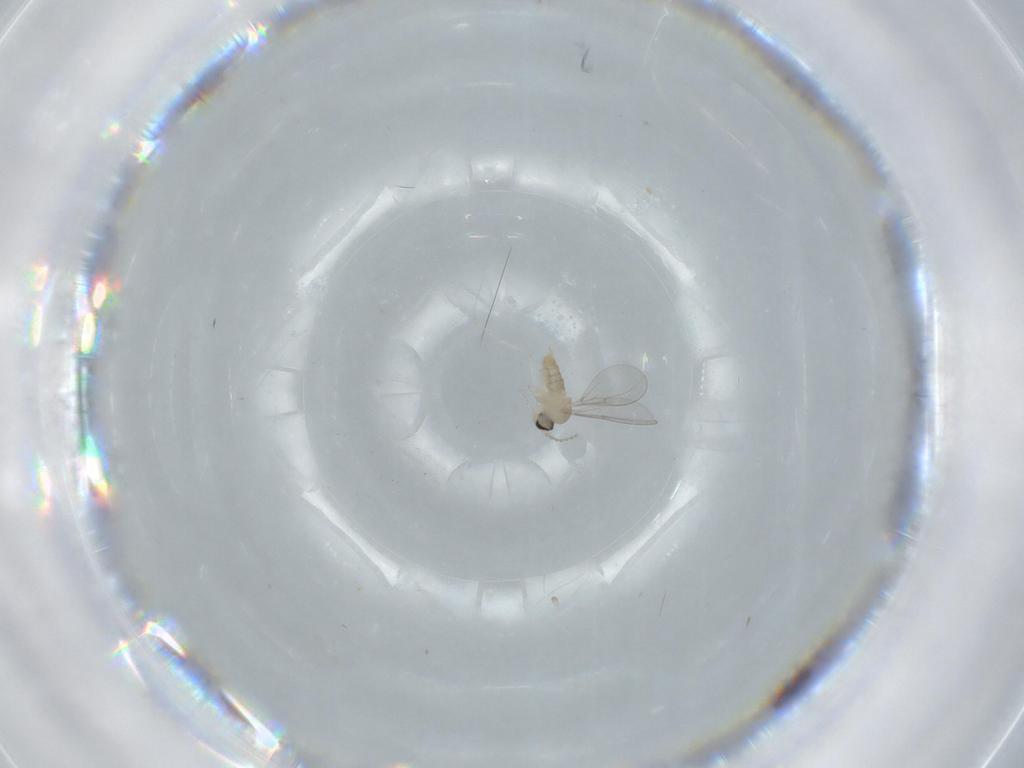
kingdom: Animalia
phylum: Arthropoda
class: Insecta
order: Diptera
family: Cecidomyiidae
